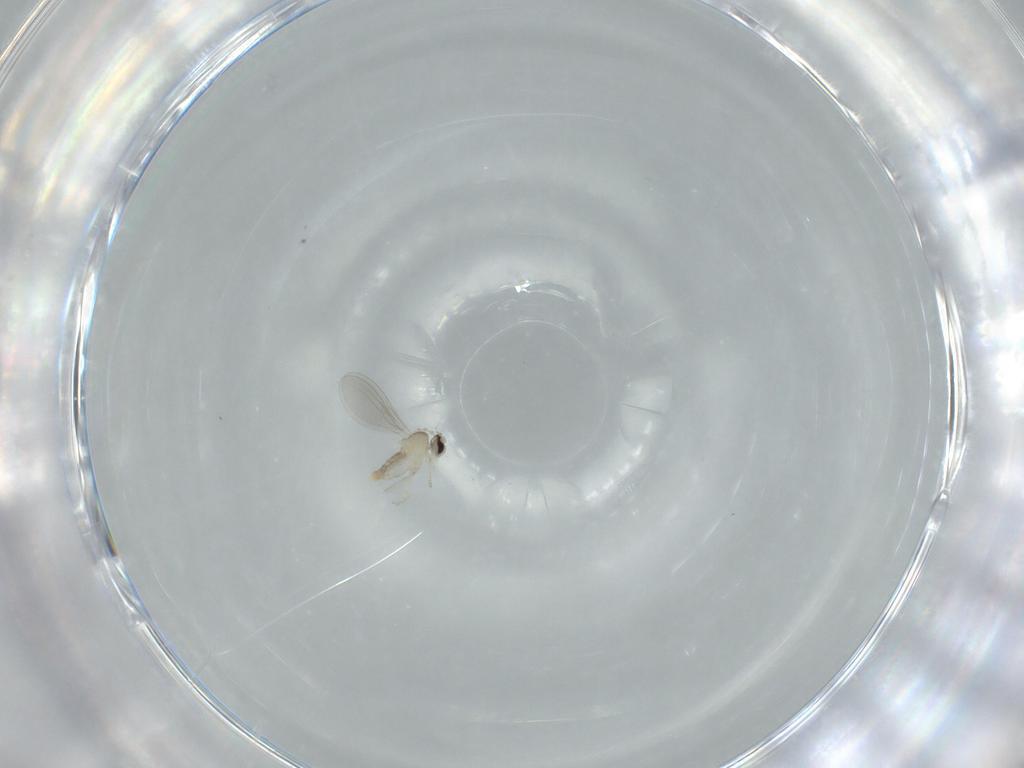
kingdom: Animalia
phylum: Arthropoda
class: Insecta
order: Diptera
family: Cecidomyiidae
